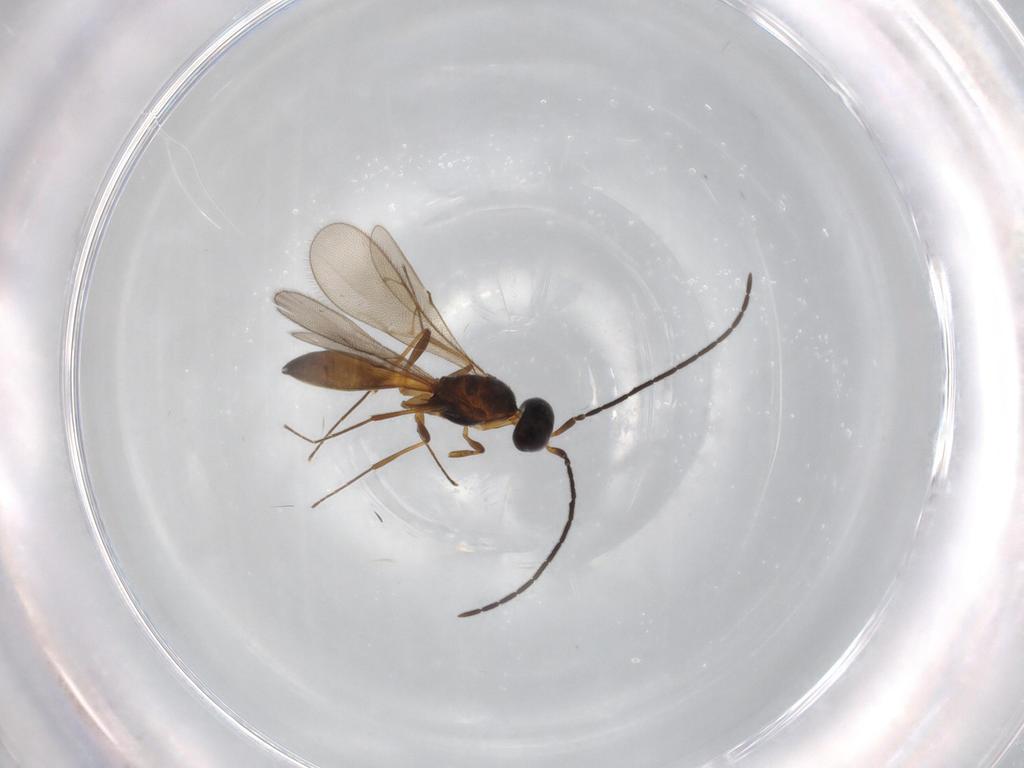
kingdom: Animalia
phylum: Arthropoda
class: Insecta
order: Hymenoptera
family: Scelionidae
